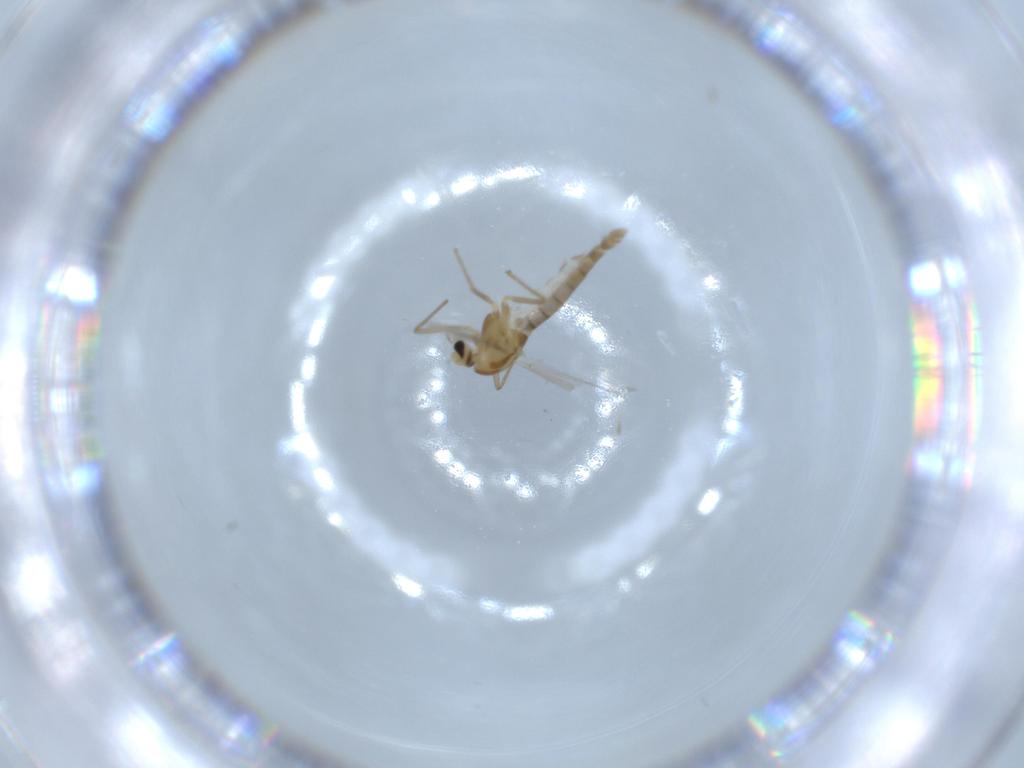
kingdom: Animalia
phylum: Arthropoda
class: Insecta
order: Diptera
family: Chironomidae
